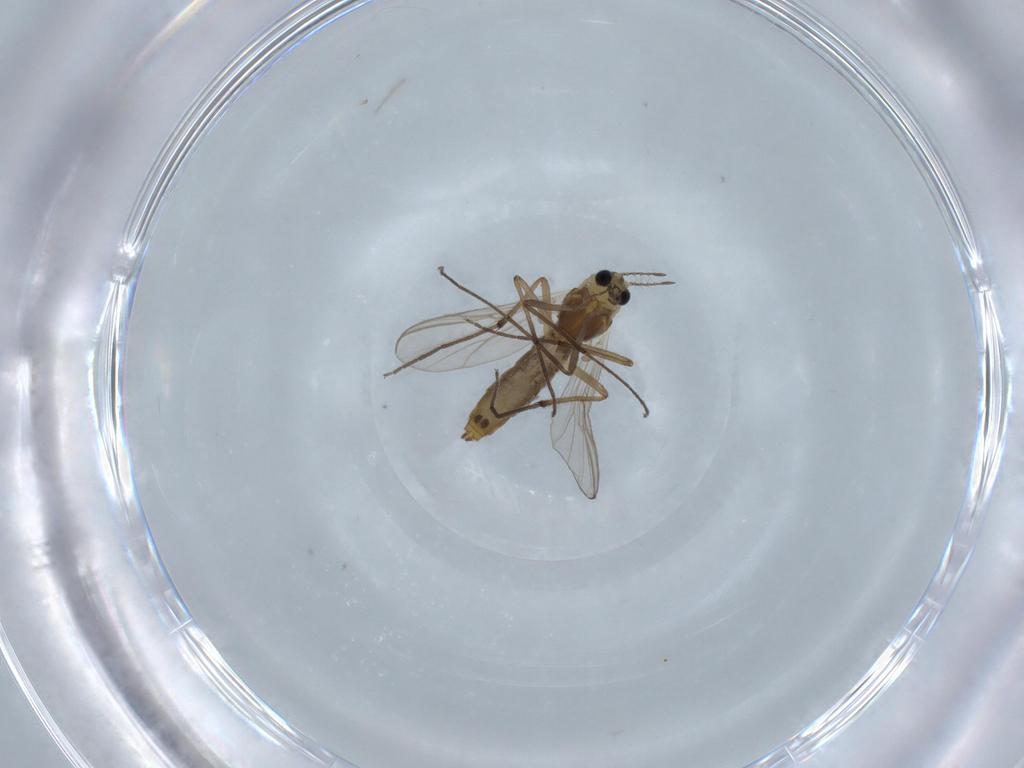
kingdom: Animalia
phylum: Arthropoda
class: Insecta
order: Diptera
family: Chironomidae
